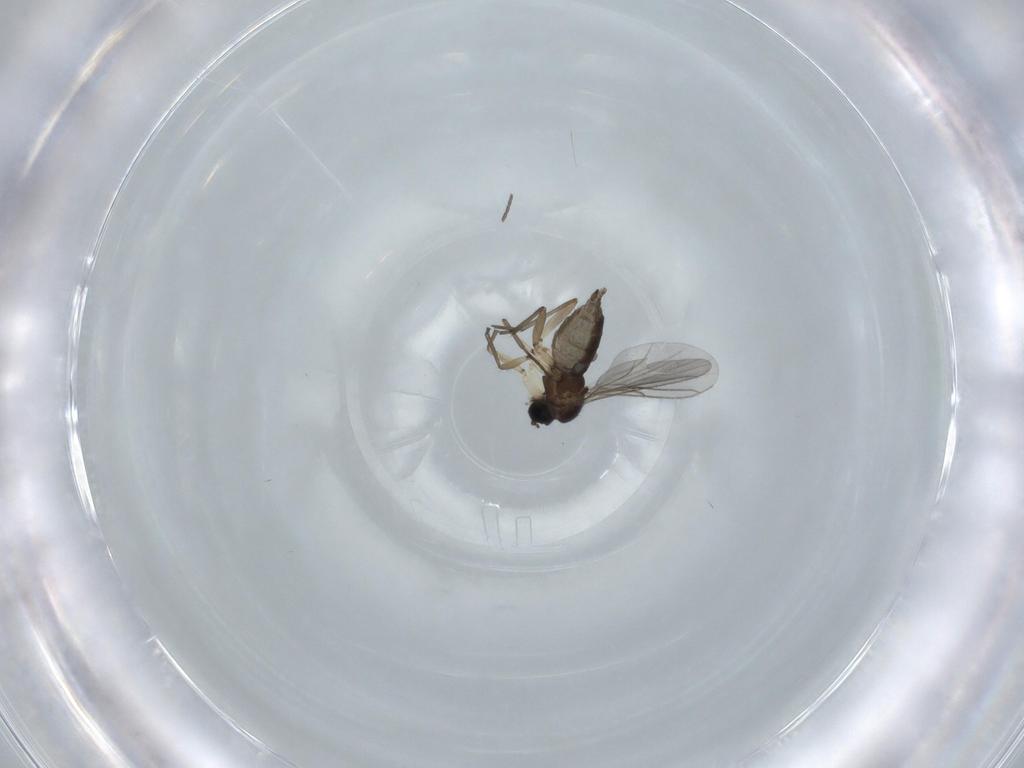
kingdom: Animalia
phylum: Arthropoda
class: Insecta
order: Diptera
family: Sciaridae
